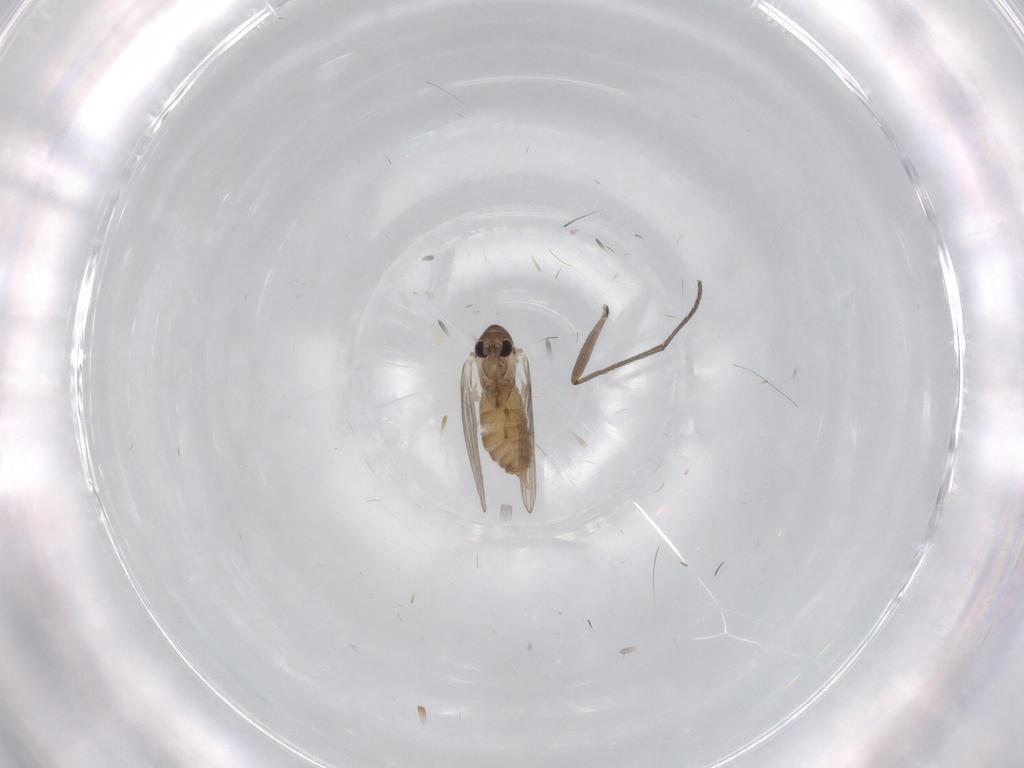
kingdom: Animalia
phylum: Arthropoda
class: Insecta
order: Diptera
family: Psychodidae
